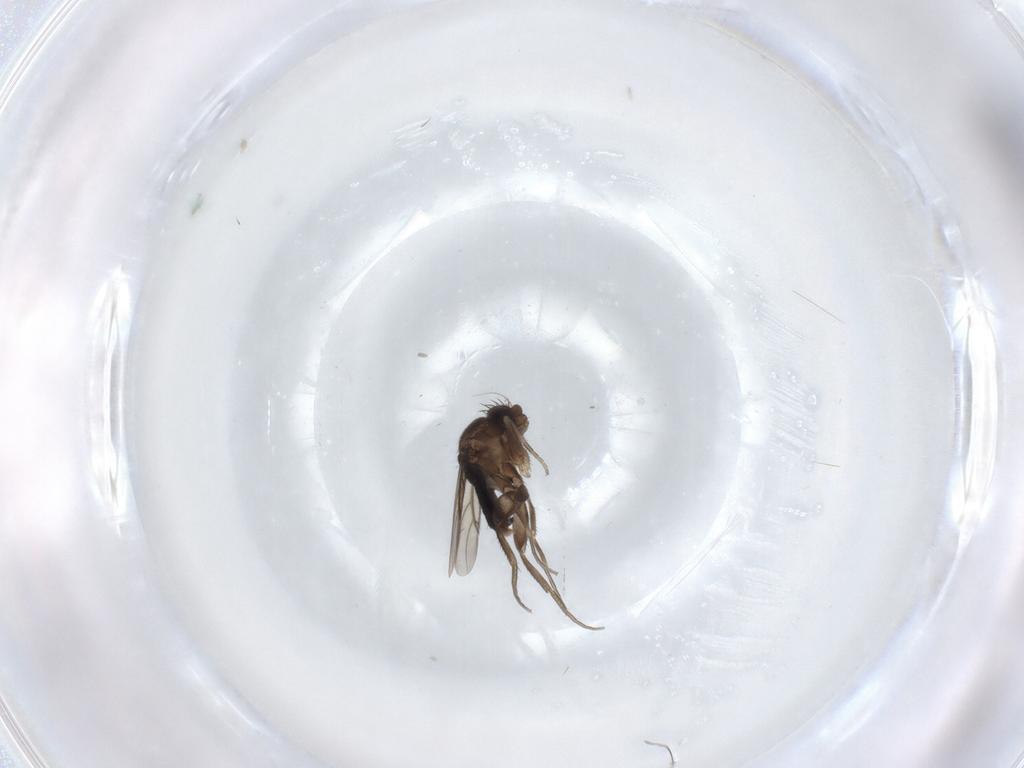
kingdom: Animalia
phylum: Arthropoda
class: Insecta
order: Diptera
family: Phoridae
